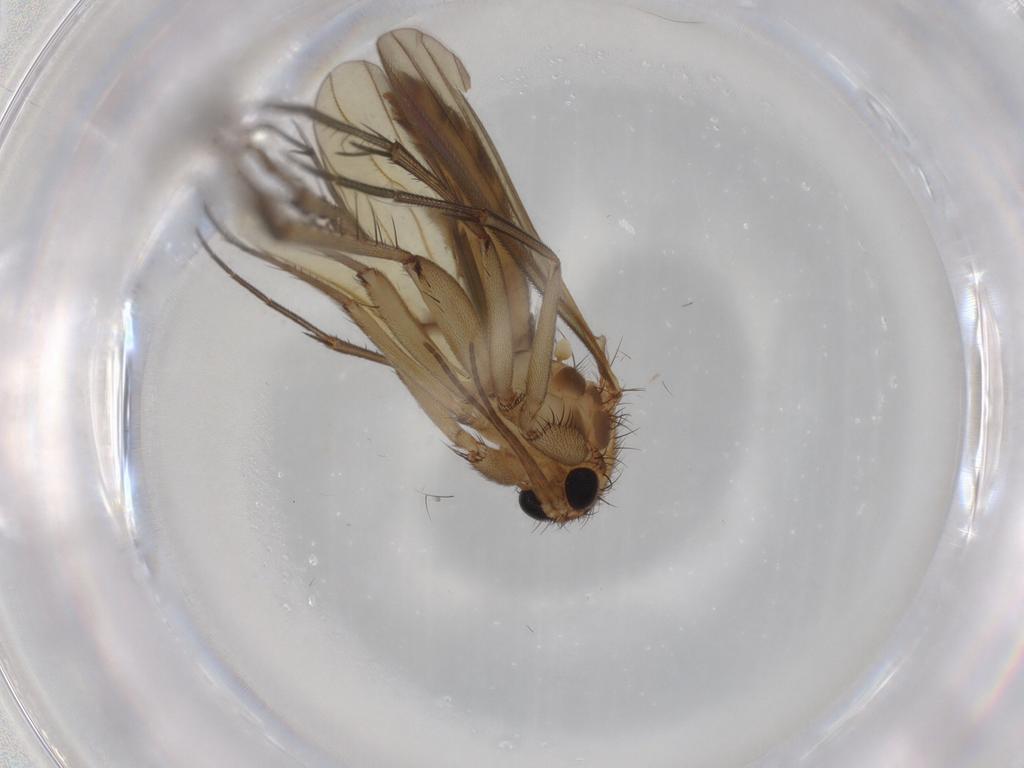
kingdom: Animalia
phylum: Arthropoda
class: Insecta
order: Diptera
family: Mycetophilidae
